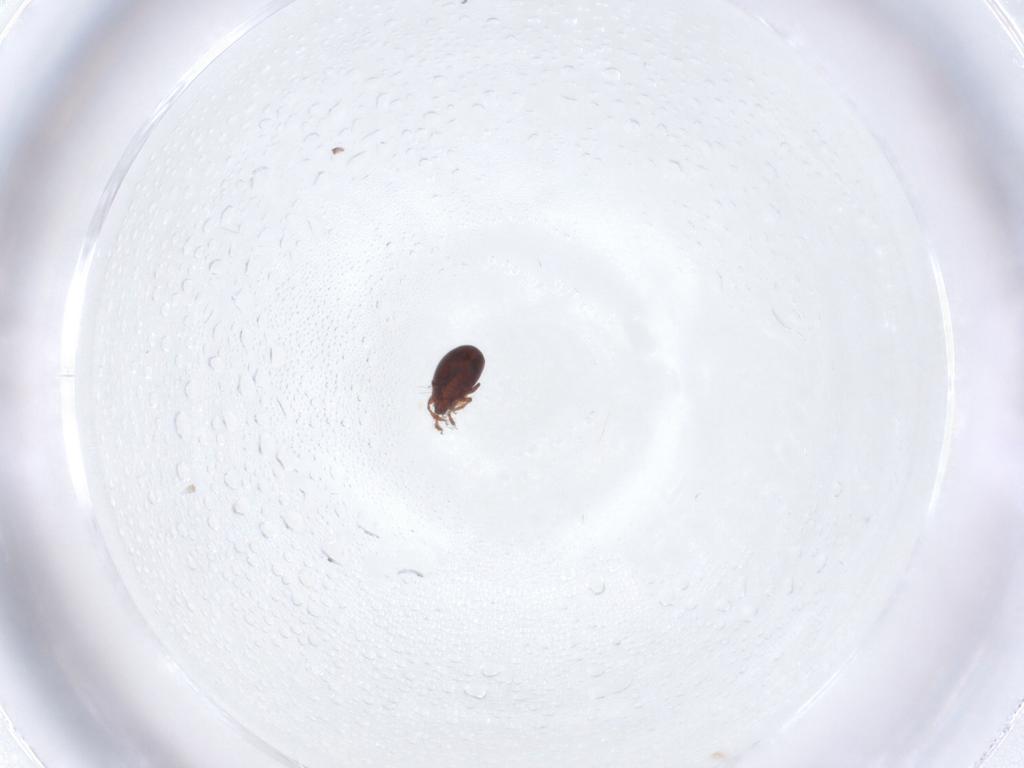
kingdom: Animalia
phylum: Arthropoda
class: Arachnida
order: Sarcoptiformes
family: Ceratozetidae
